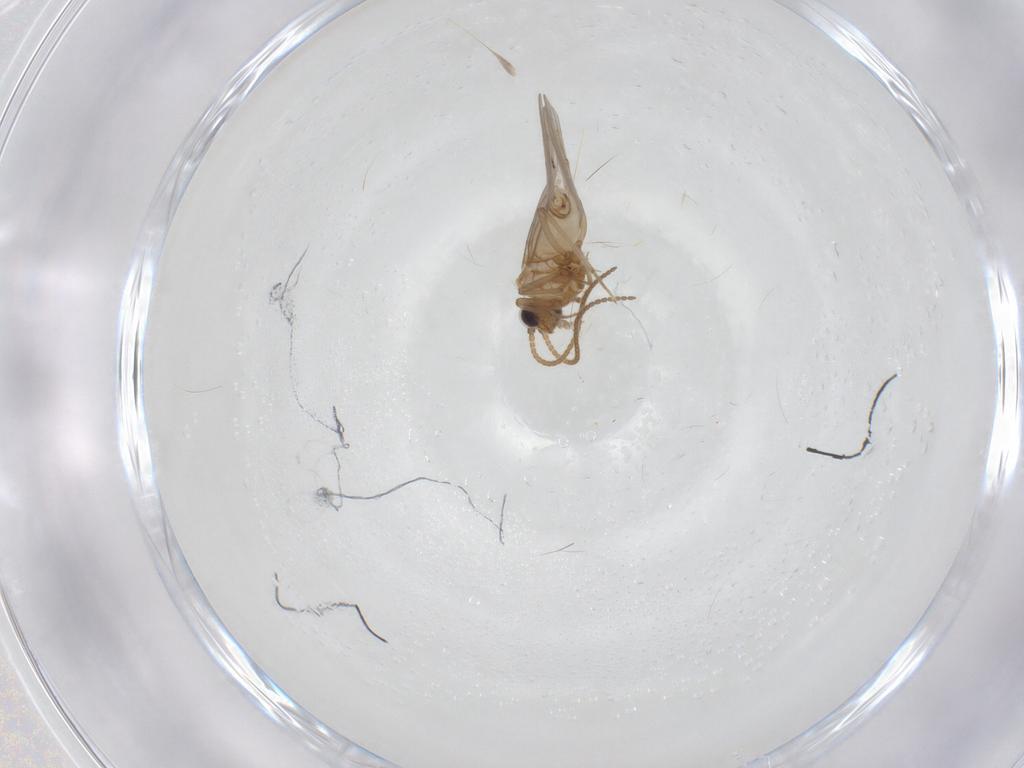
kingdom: Animalia
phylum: Arthropoda
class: Insecta
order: Neuroptera
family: Coniopterygidae
